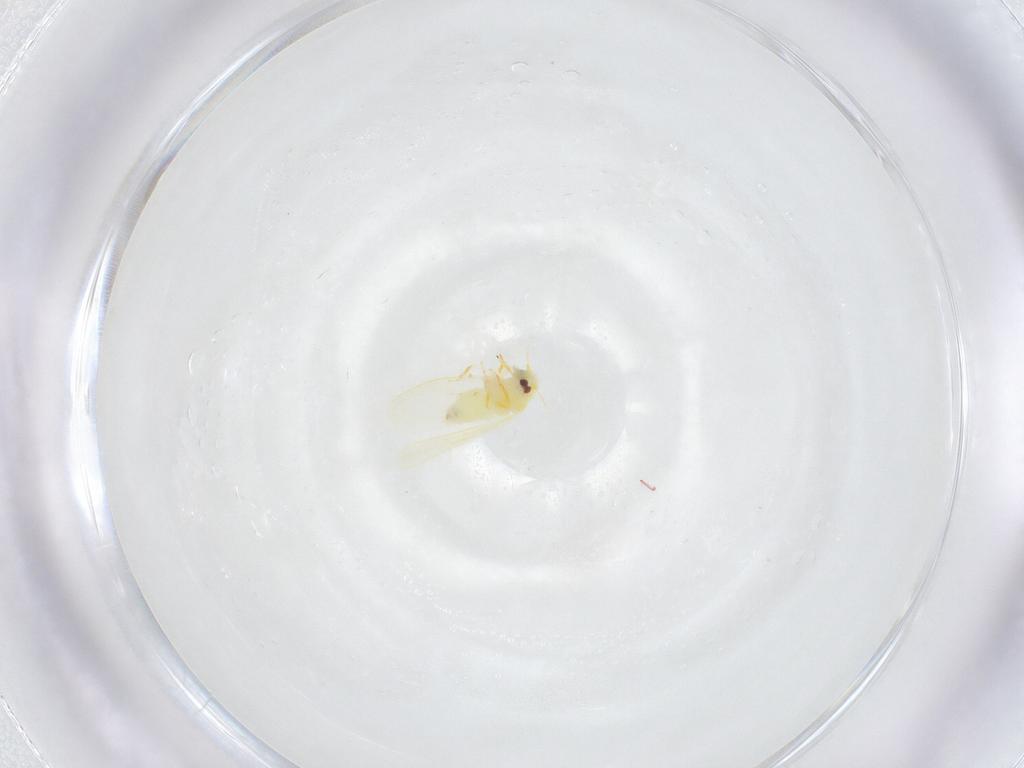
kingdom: Animalia
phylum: Arthropoda
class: Insecta
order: Hemiptera
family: Aleyrodidae
